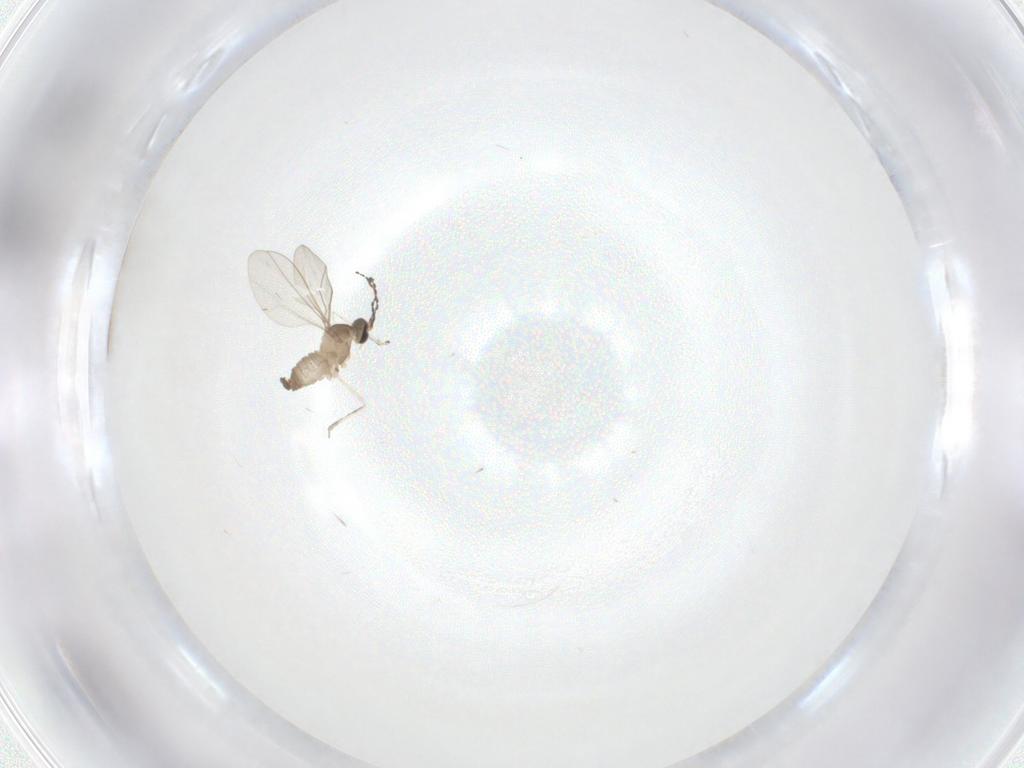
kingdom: Animalia
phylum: Arthropoda
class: Insecta
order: Diptera
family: Cecidomyiidae
